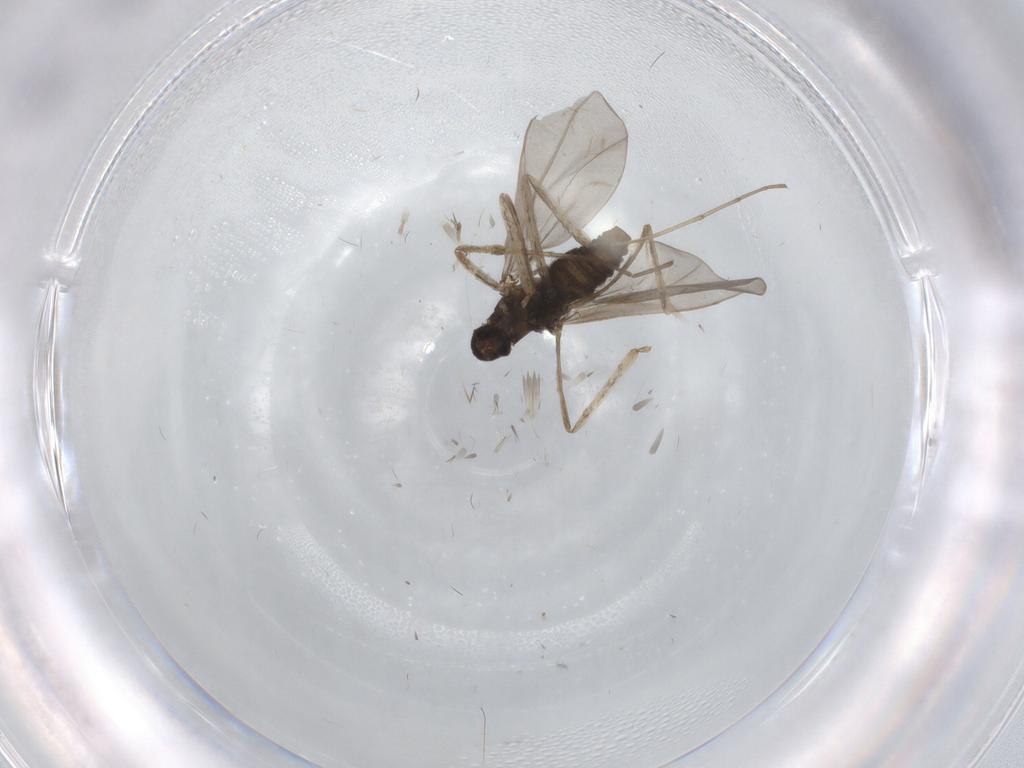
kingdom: Animalia
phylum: Arthropoda
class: Insecta
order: Diptera
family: Cecidomyiidae
